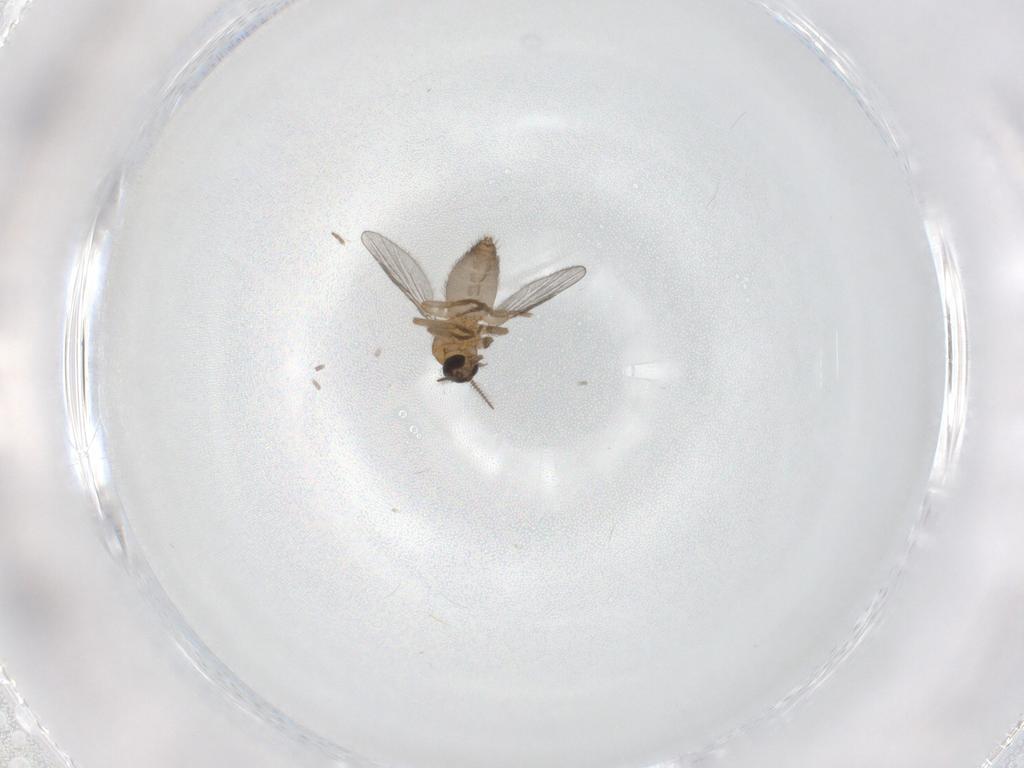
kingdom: Animalia
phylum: Arthropoda
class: Insecta
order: Diptera
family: Ceratopogonidae
